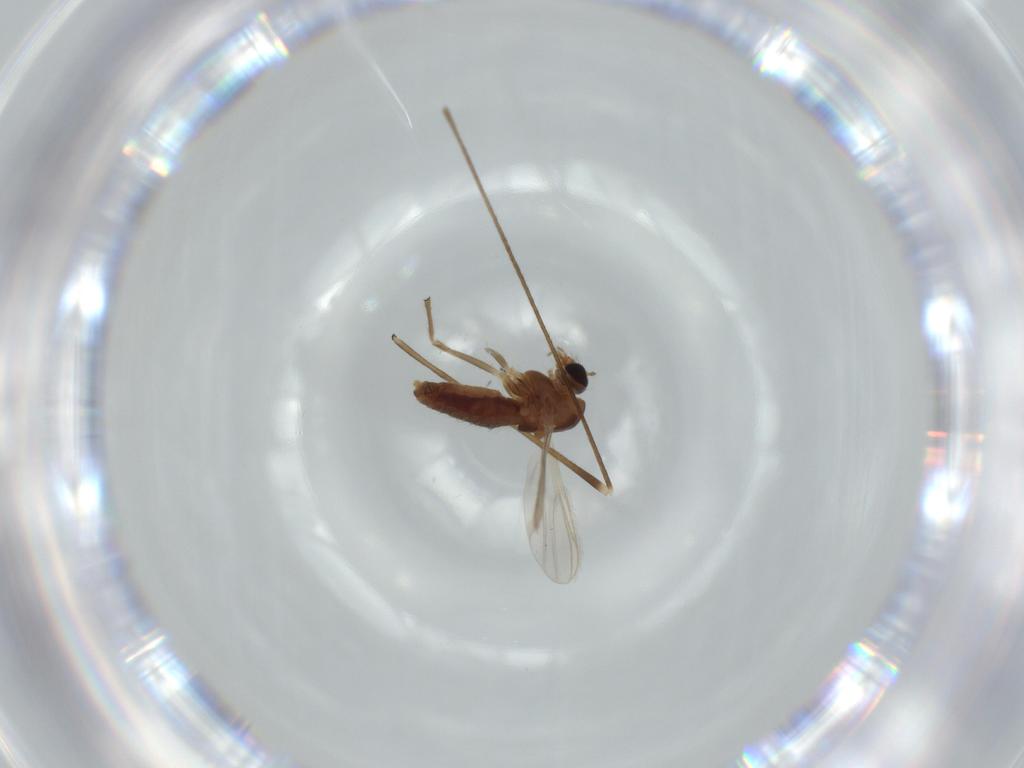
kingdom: Animalia
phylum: Arthropoda
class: Insecta
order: Diptera
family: Chironomidae
